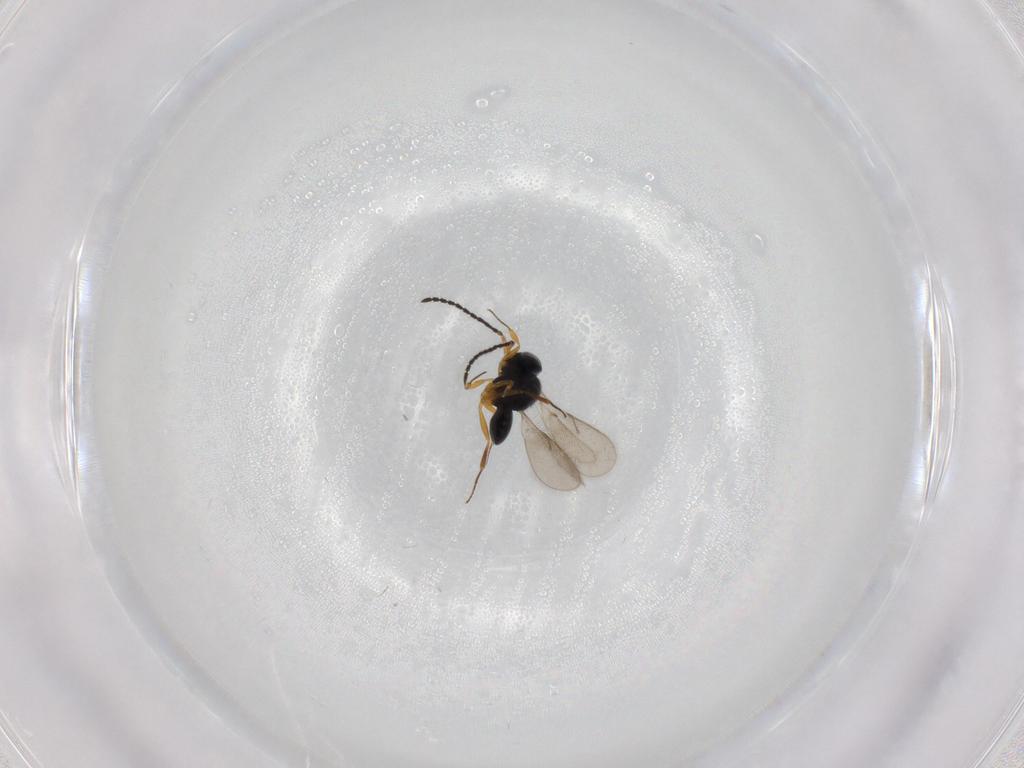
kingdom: Animalia
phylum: Arthropoda
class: Insecta
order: Hymenoptera
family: Scelionidae
